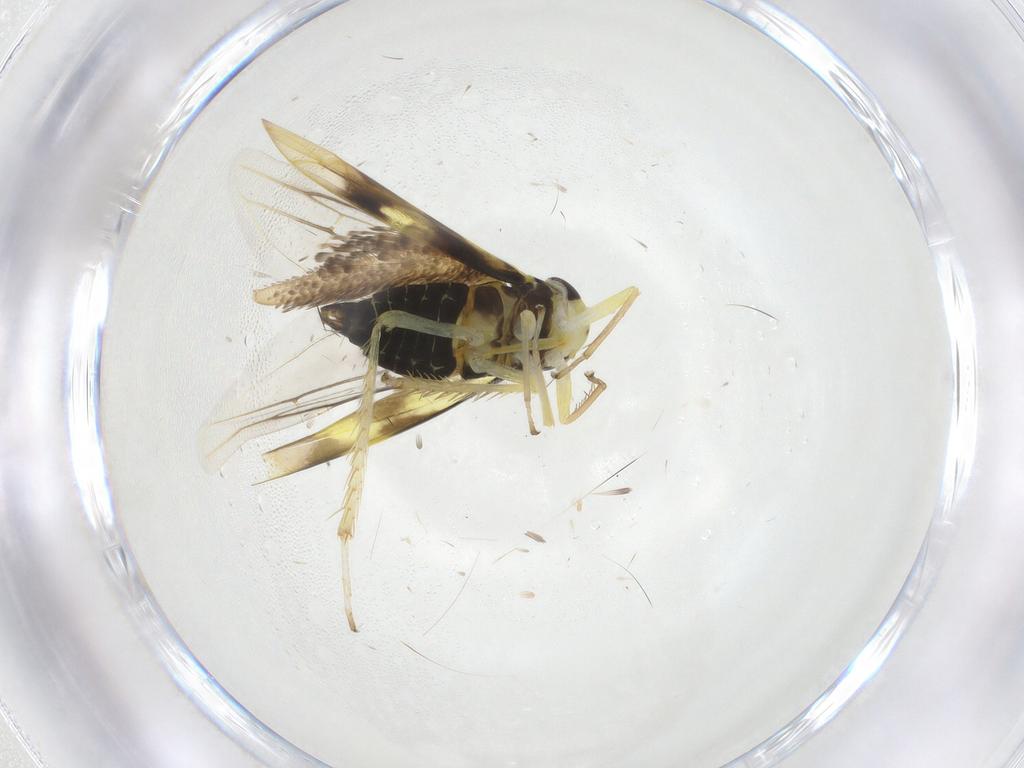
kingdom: Animalia
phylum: Arthropoda
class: Insecta
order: Hemiptera
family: Cicadellidae
